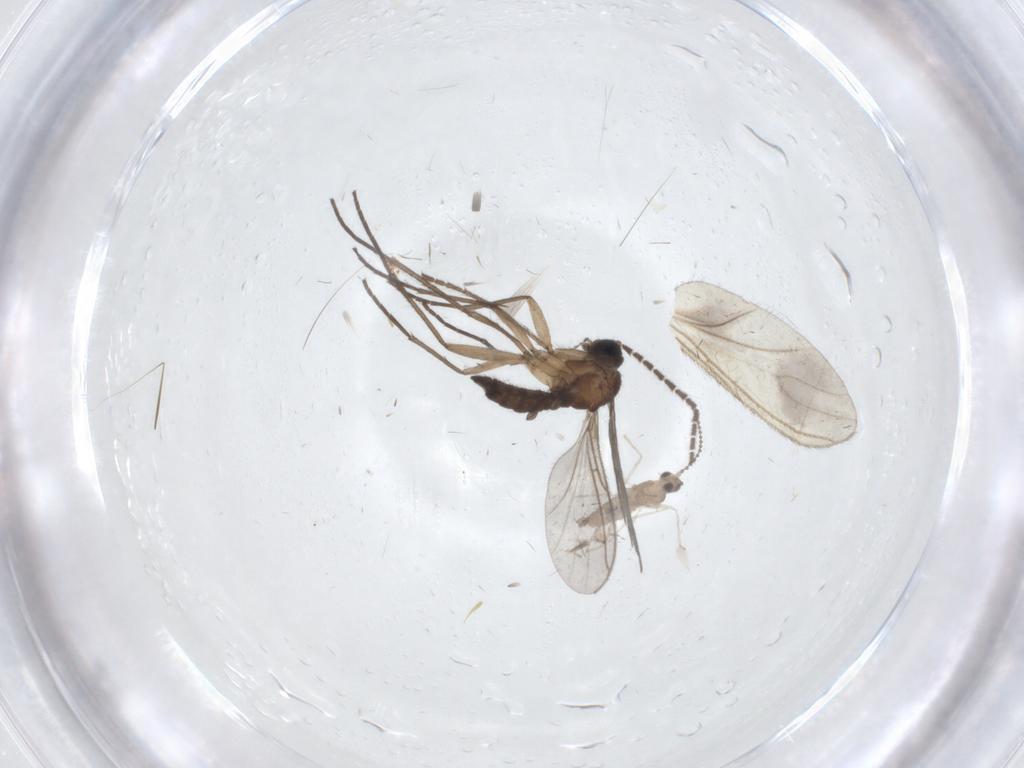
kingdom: Animalia
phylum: Arthropoda
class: Insecta
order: Diptera
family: Sciaridae
